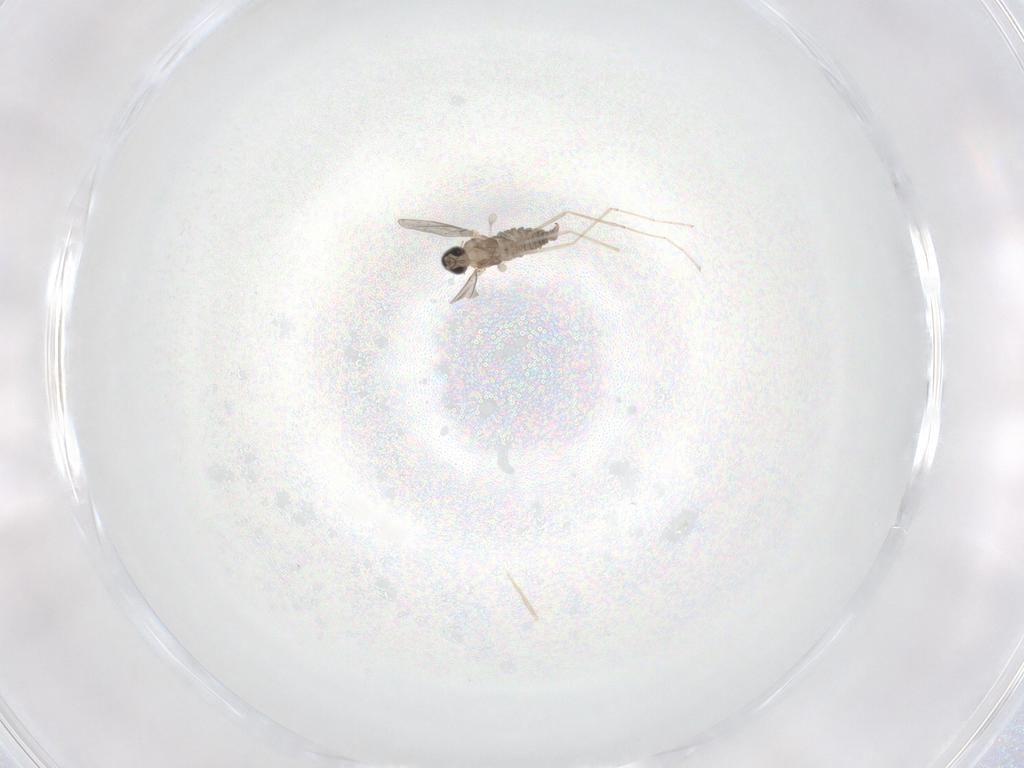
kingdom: Animalia
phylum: Arthropoda
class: Insecta
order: Diptera
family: Cecidomyiidae
